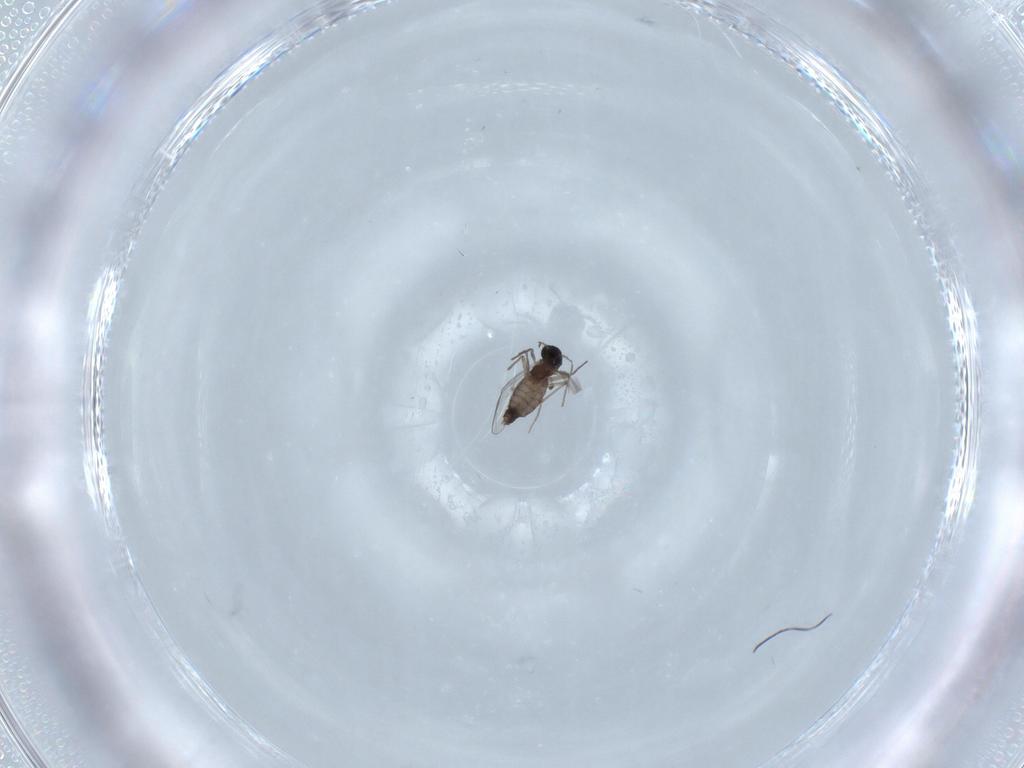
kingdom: Animalia
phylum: Arthropoda
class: Insecta
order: Diptera
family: Chironomidae
